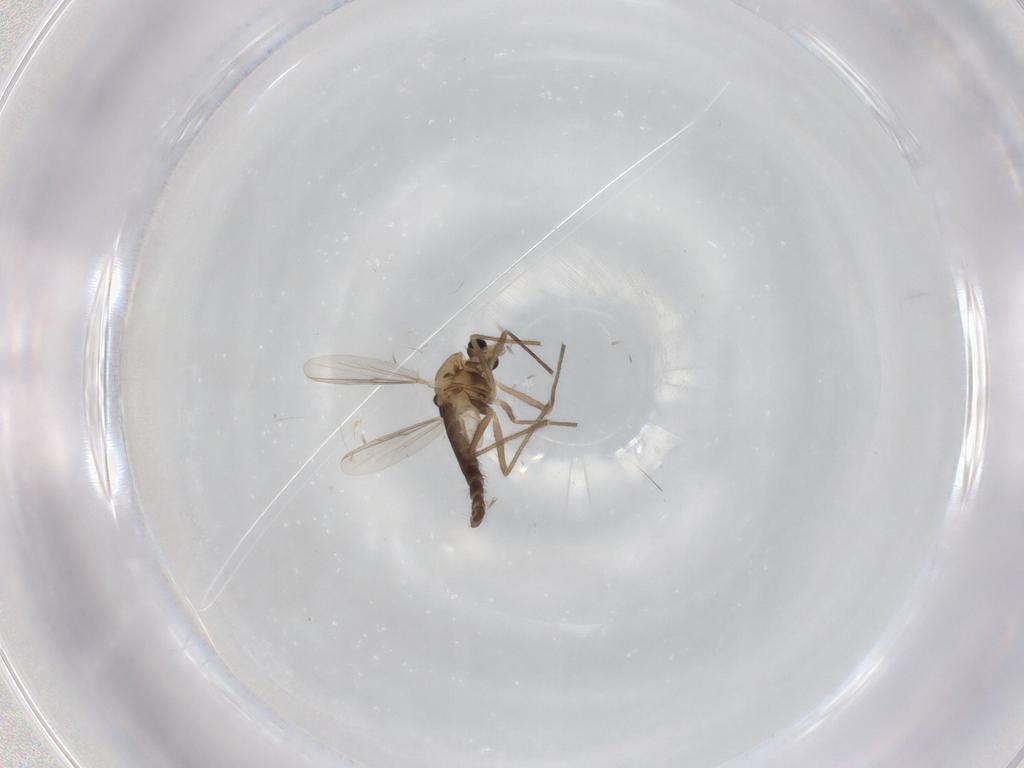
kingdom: Animalia
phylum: Arthropoda
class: Insecta
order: Diptera
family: Chironomidae
